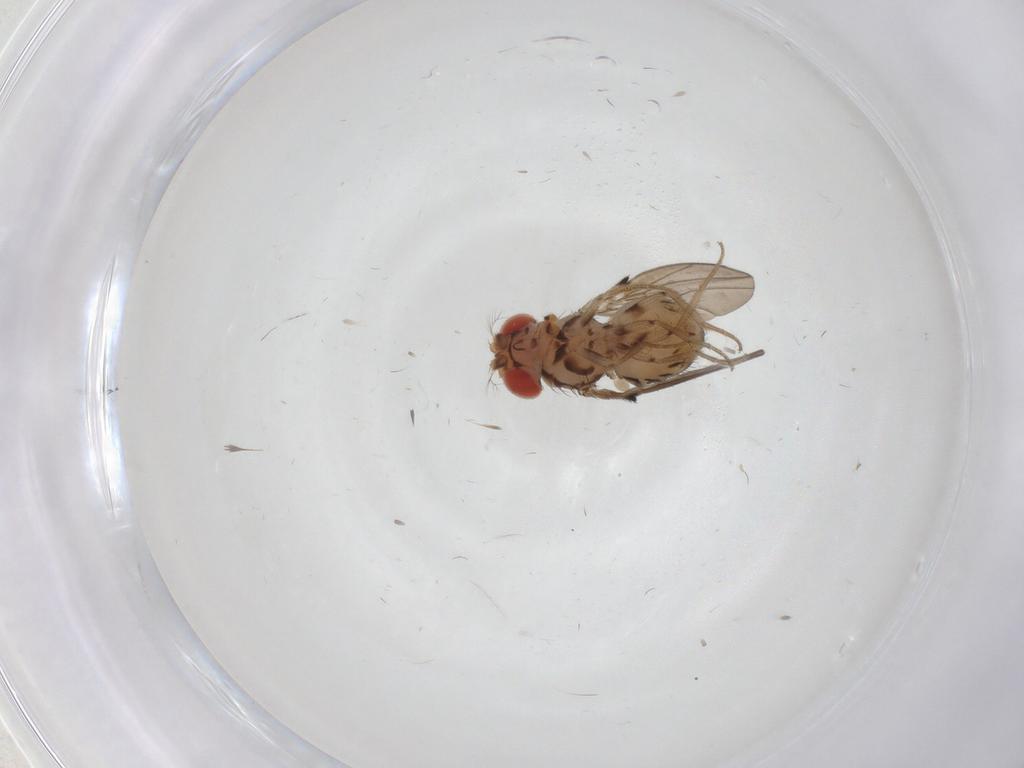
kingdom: Animalia
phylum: Arthropoda
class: Insecta
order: Diptera
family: Drosophilidae
